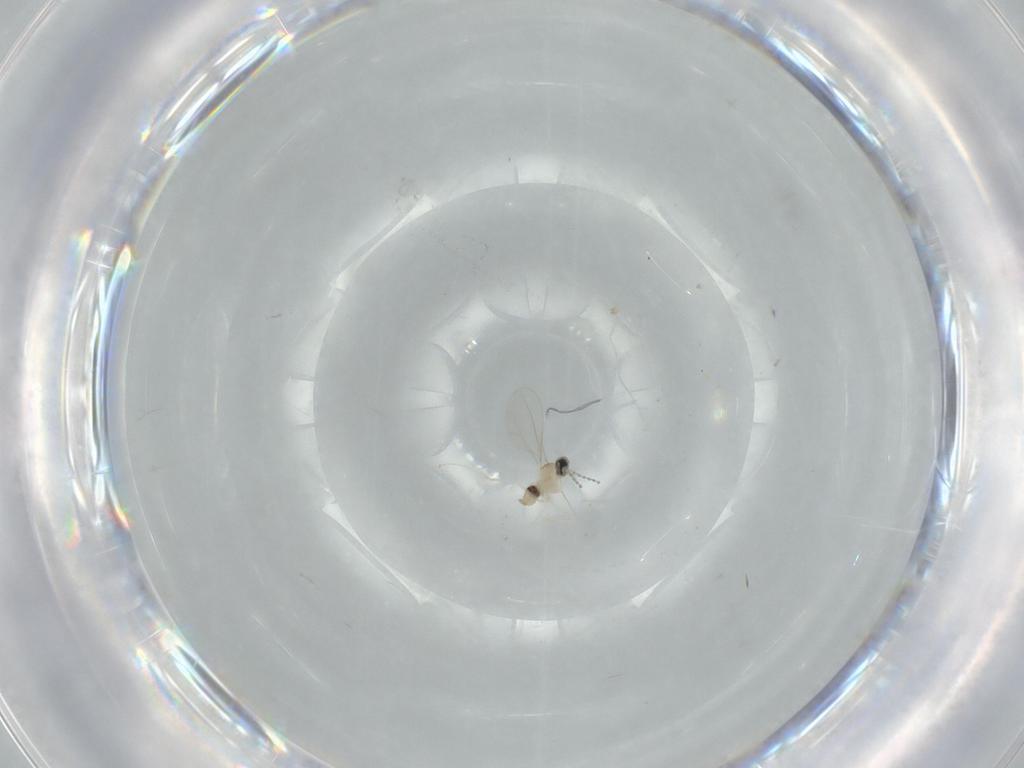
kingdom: Animalia
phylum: Arthropoda
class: Insecta
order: Diptera
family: Cecidomyiidae
